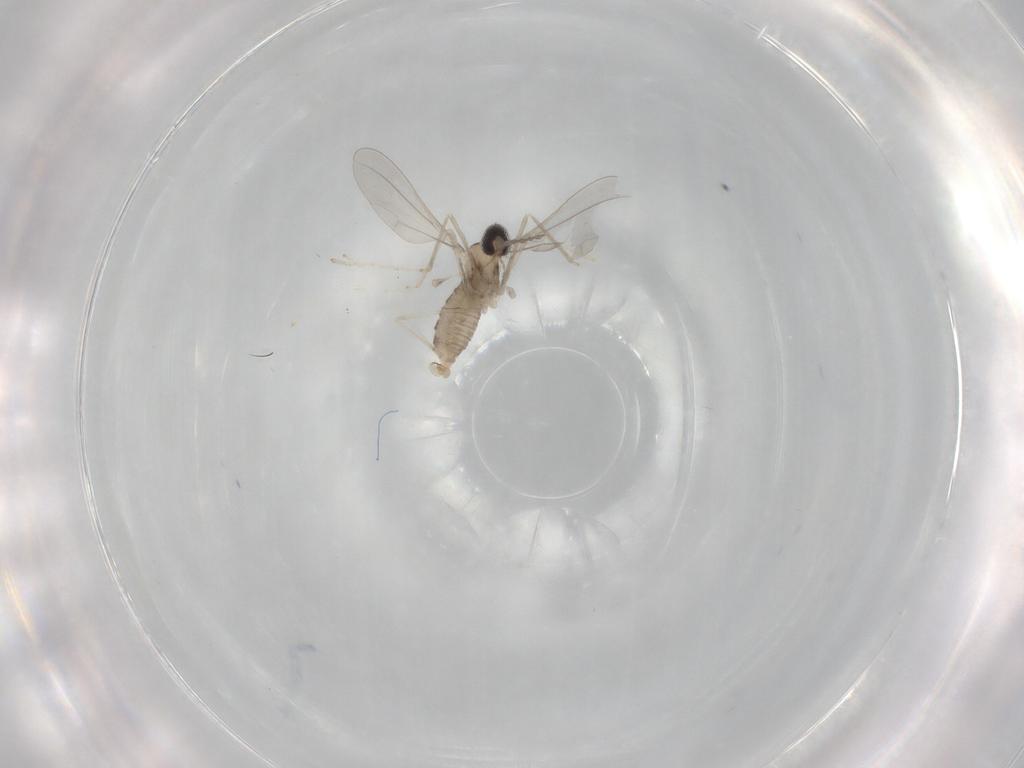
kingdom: Animalia
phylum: Arthropoda
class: Insecta
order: Diptera
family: Cecidomyiidae
